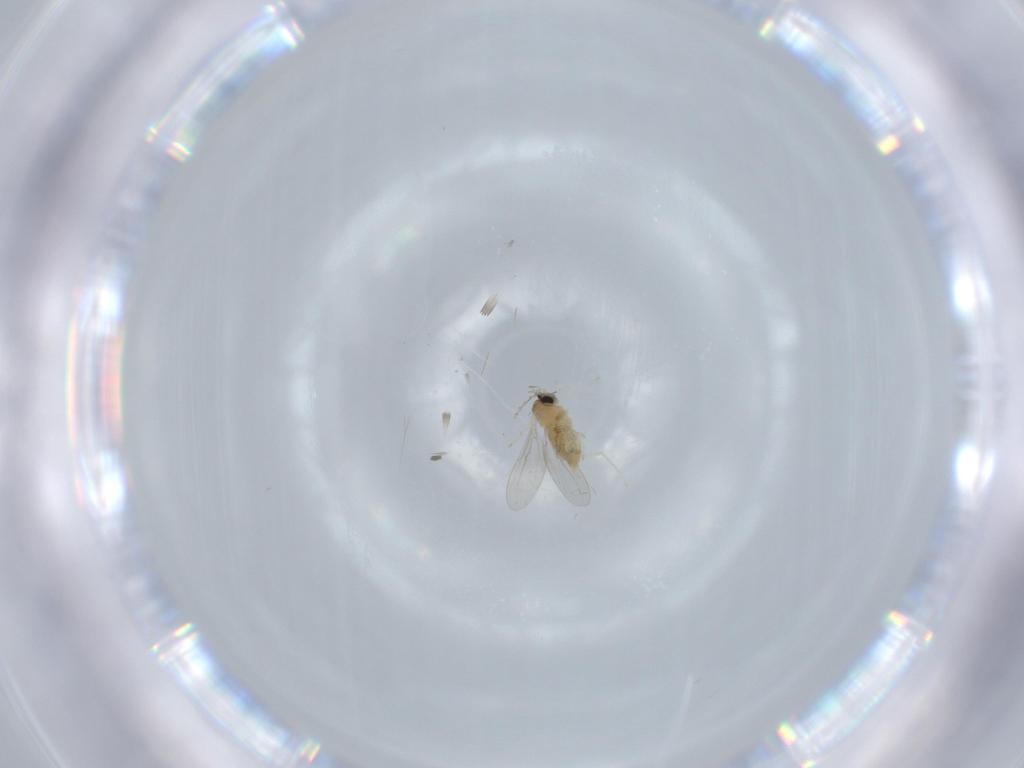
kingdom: Animalia
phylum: Arthropoda
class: Insecta
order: Diptera
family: Cecidomyiidae
